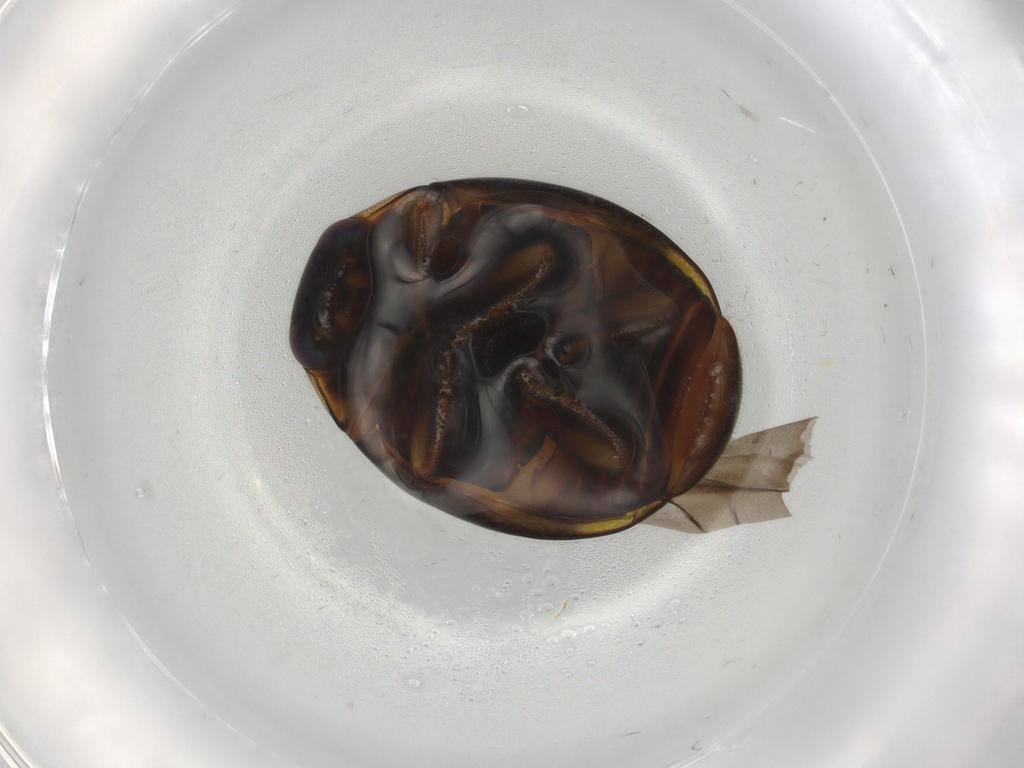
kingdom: Animalia
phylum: Arthropoda
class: Insecta
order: Coleoptera
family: Coccinellidae
